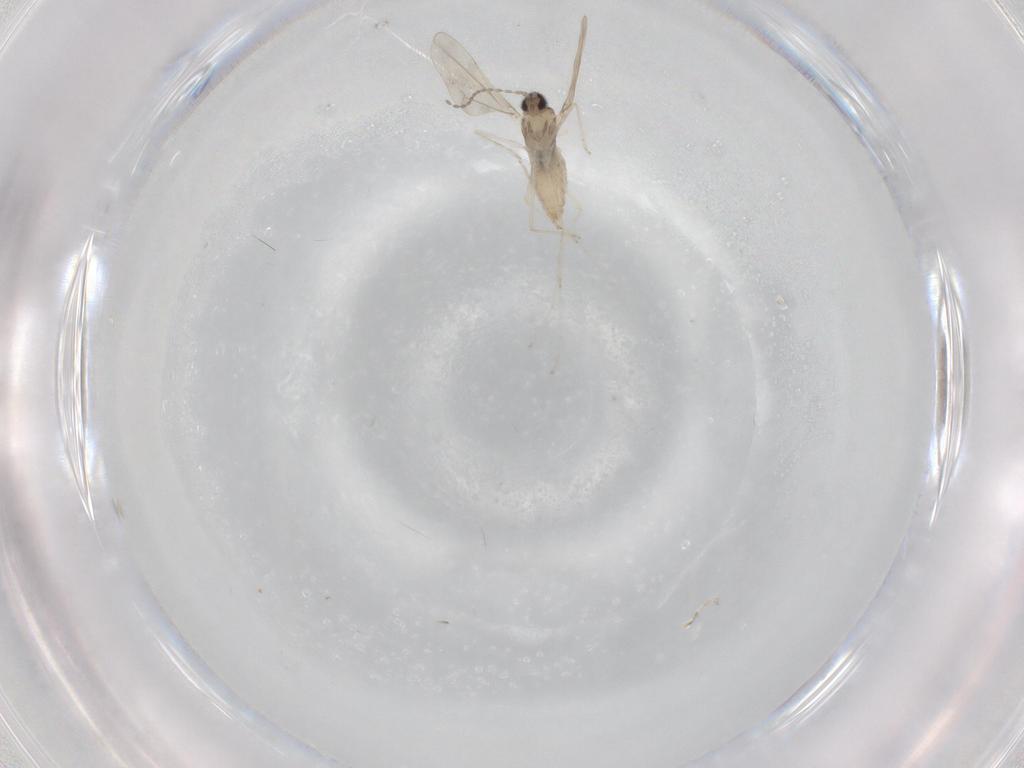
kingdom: Animalia
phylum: Arthropoda
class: Insecta
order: Diptera
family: Cecidomyiidae
